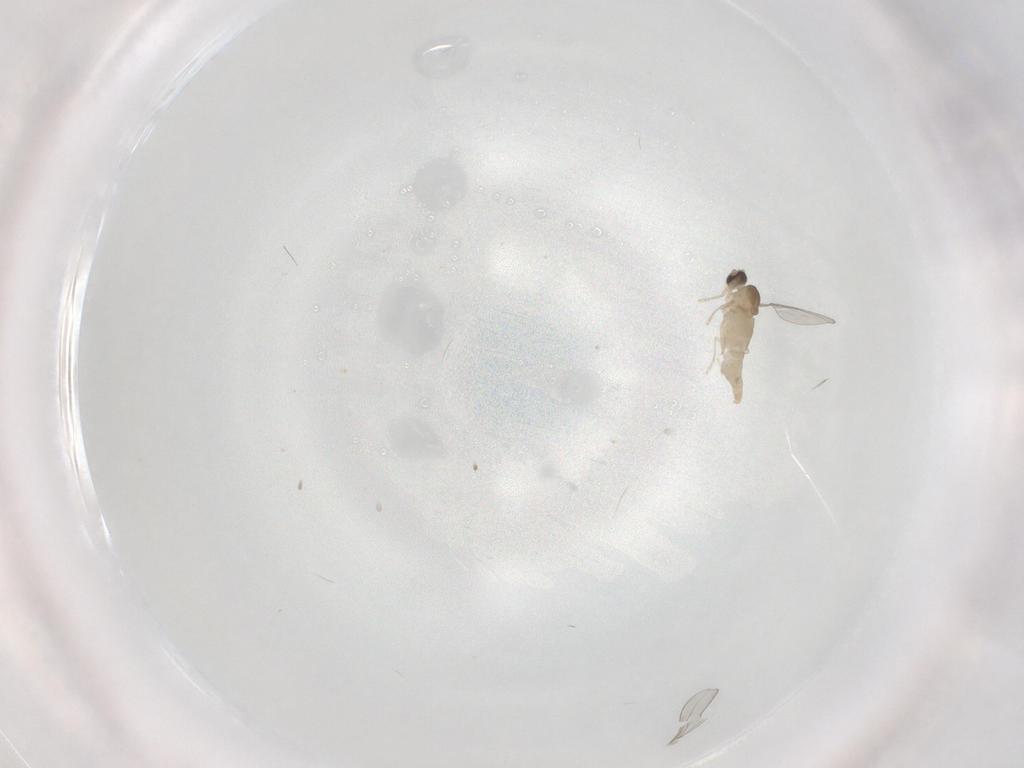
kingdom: Animalia
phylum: Arthropoda
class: Insecta
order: Diptera
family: Cecidomyiidae
